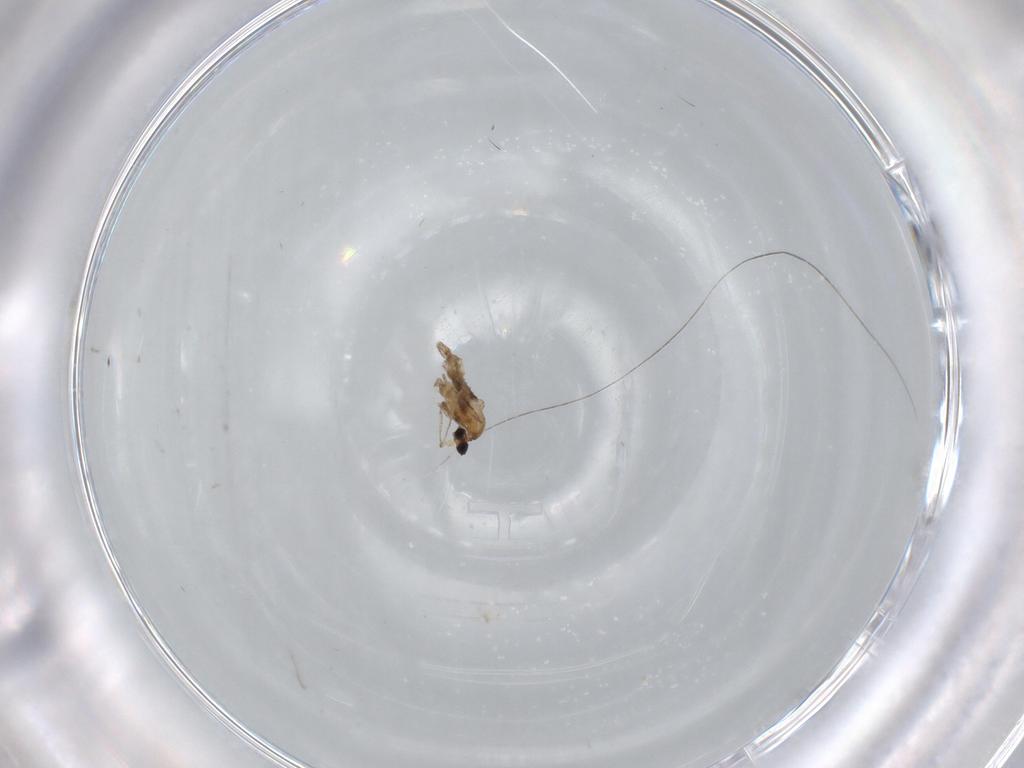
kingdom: Animalia
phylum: Arthropoda
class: Insecta
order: Diptera
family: Cecidomyiidae
